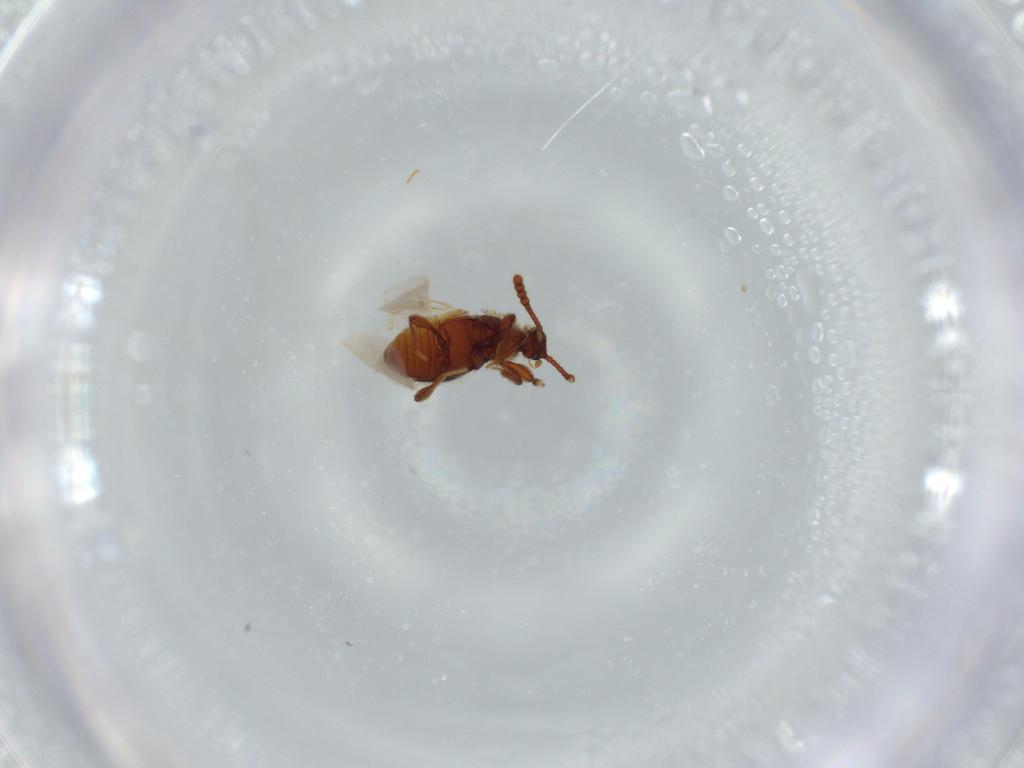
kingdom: Animalia
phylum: Arthropoda
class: Insecta
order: Coleoptera
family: Staphylinidae
